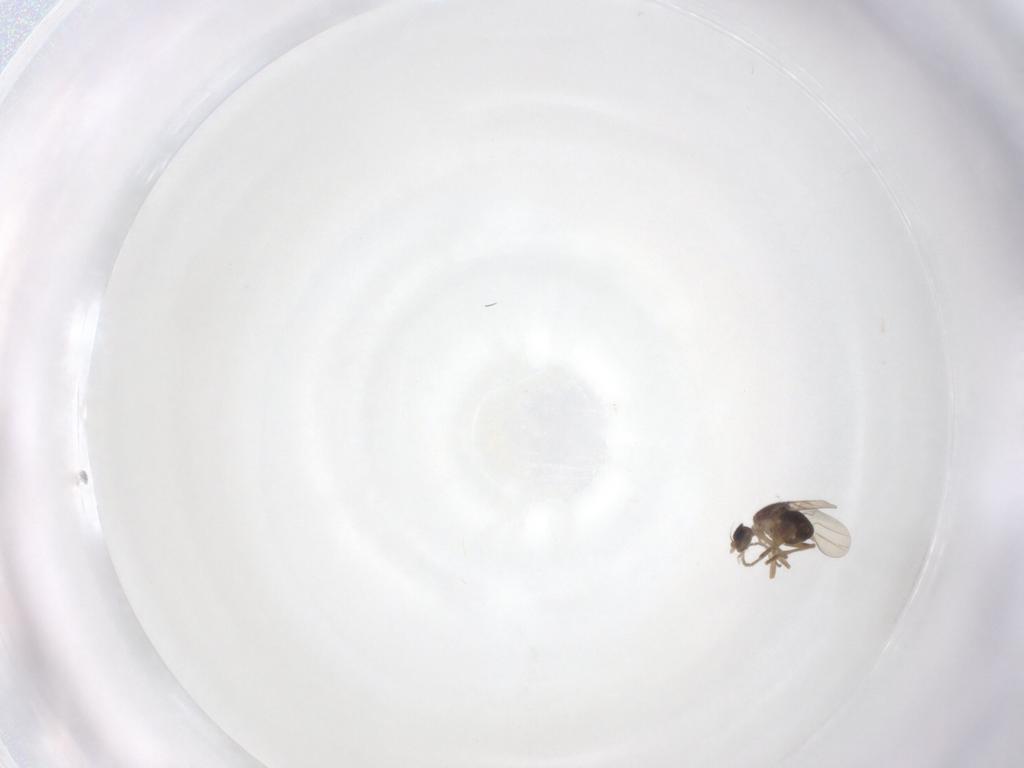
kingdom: Animalia
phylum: Arthropoda
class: Insecta
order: Diptera
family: Phoridae
